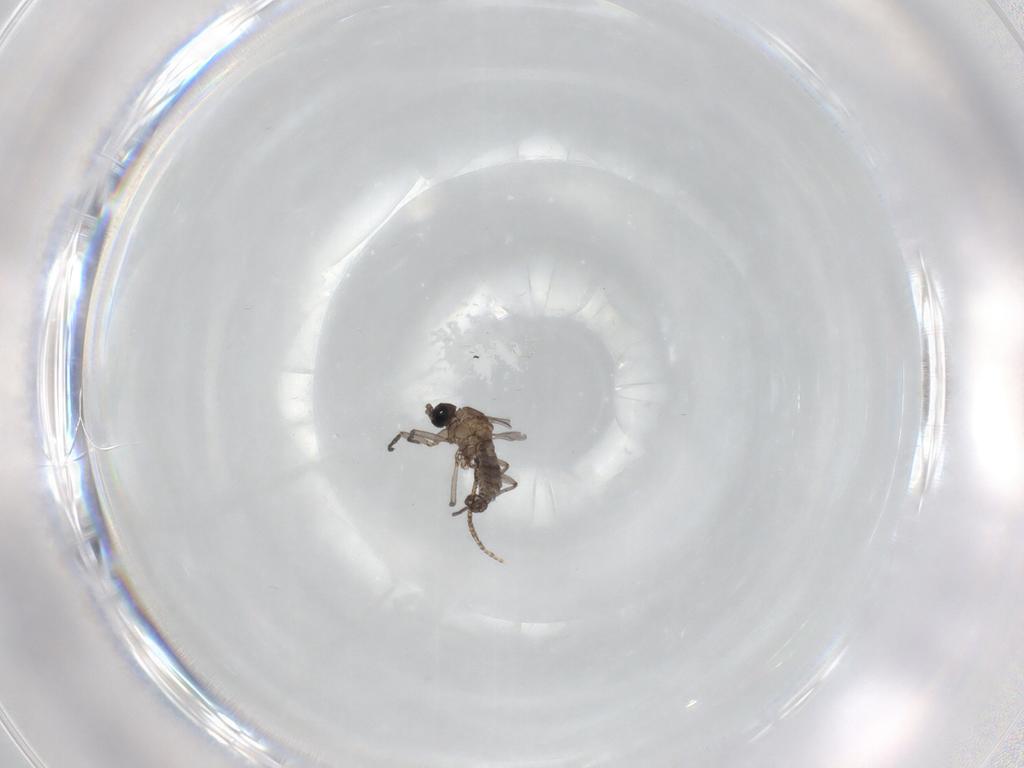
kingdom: Animalia
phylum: Arthropoda
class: Insecta
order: Diptera
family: Sciaridae
